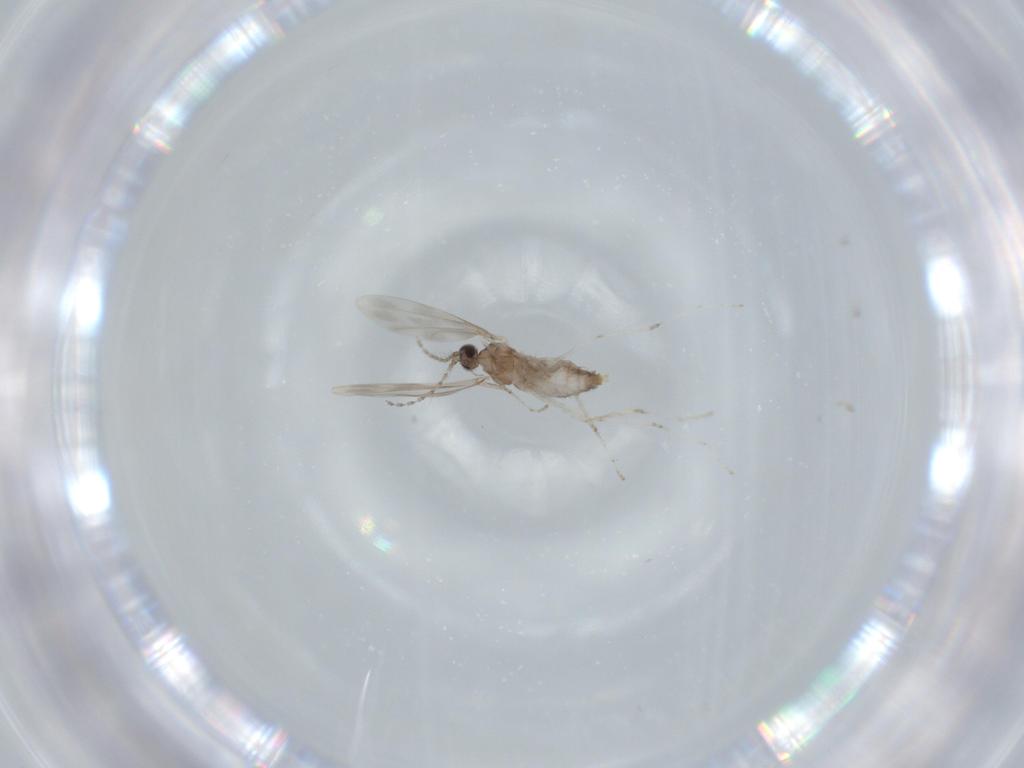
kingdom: Animalia
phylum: Arthropoda
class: Insecta
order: Diptera
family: Cecidomyiidae
